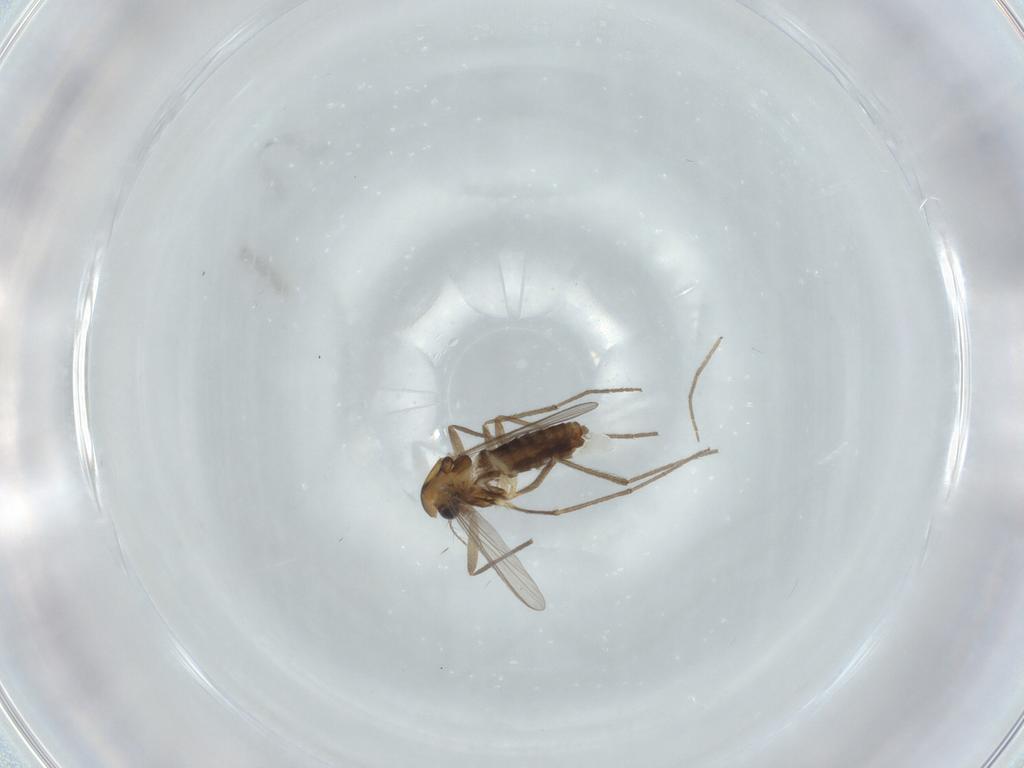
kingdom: Animalia
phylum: Arthropoda
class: Insecta
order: Diptera
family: Chironomidae
